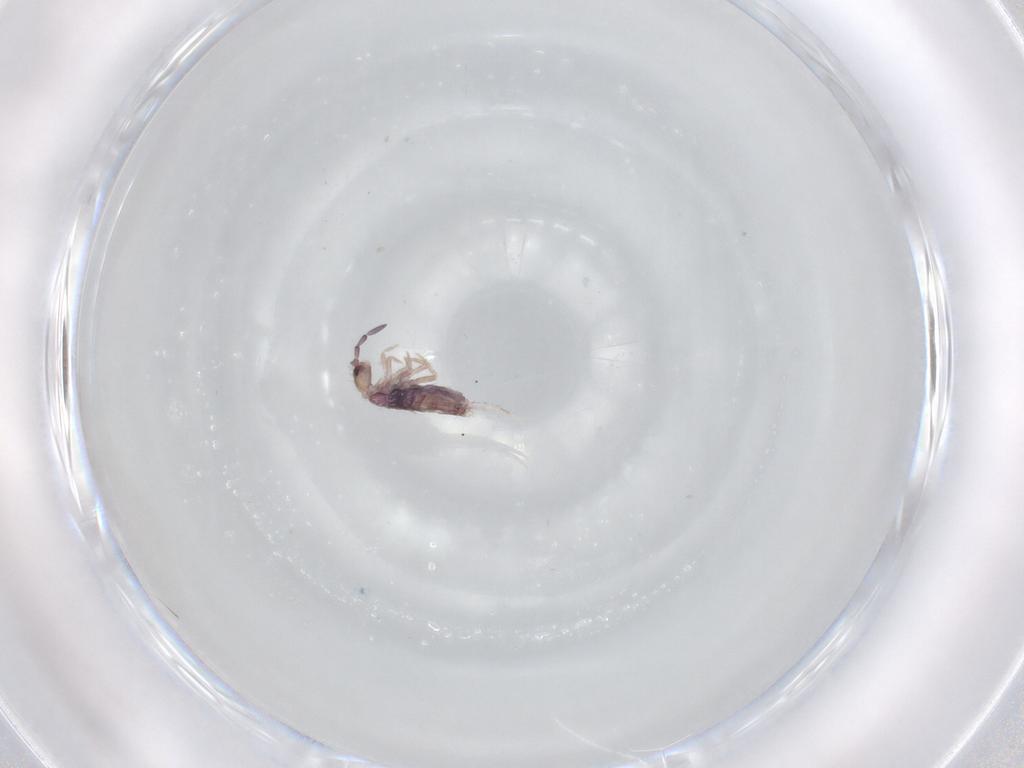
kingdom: Animalia
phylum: Arthropoda
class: Collembola
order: Entomobryomorpha
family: Entomobryidae
